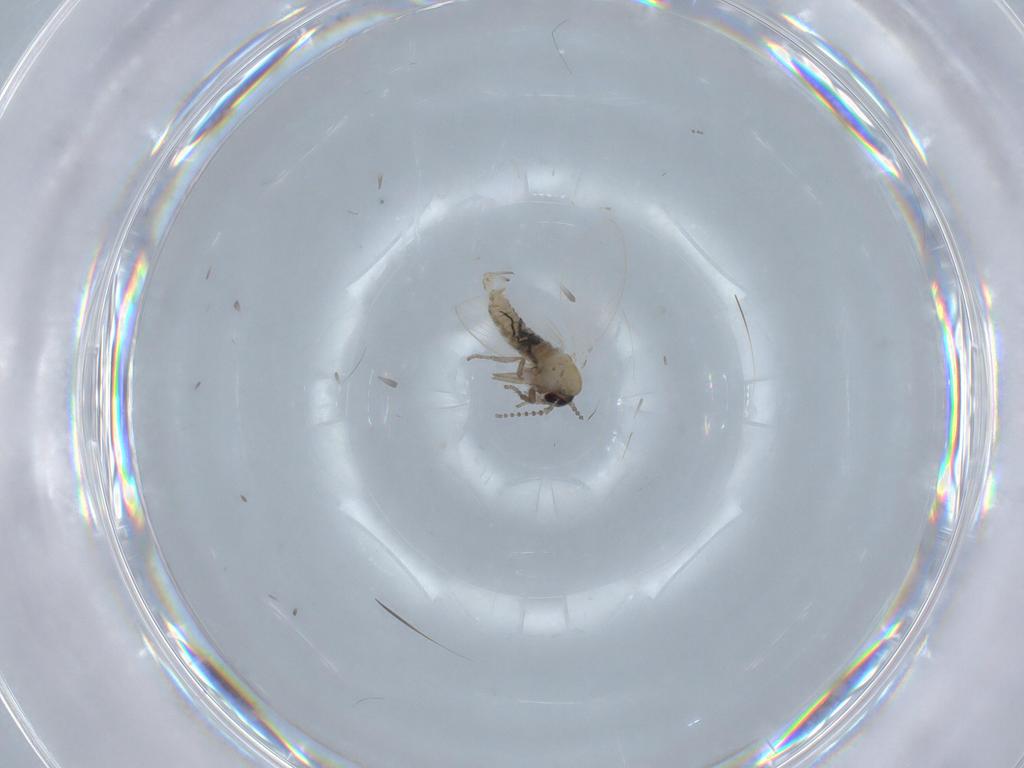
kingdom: Animalia
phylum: Arthropoda
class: Insecta
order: Diptera
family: Psychodidae
